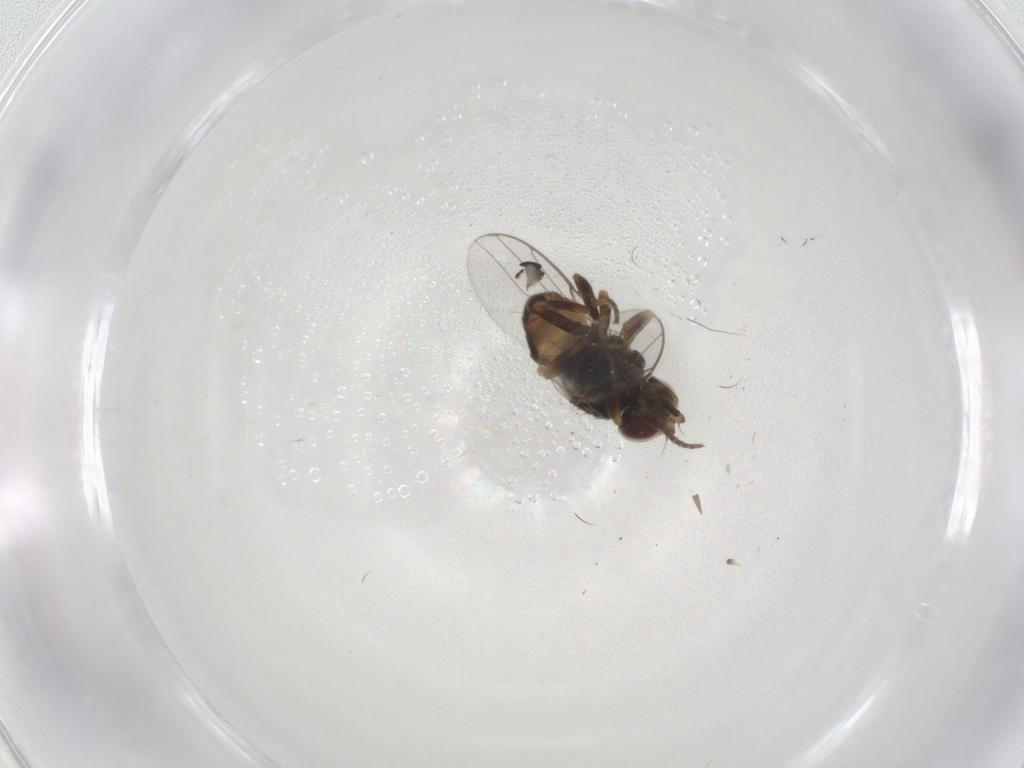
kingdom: Animalia
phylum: Arthropoda
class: Insecta
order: Diptera
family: Chloropidae
